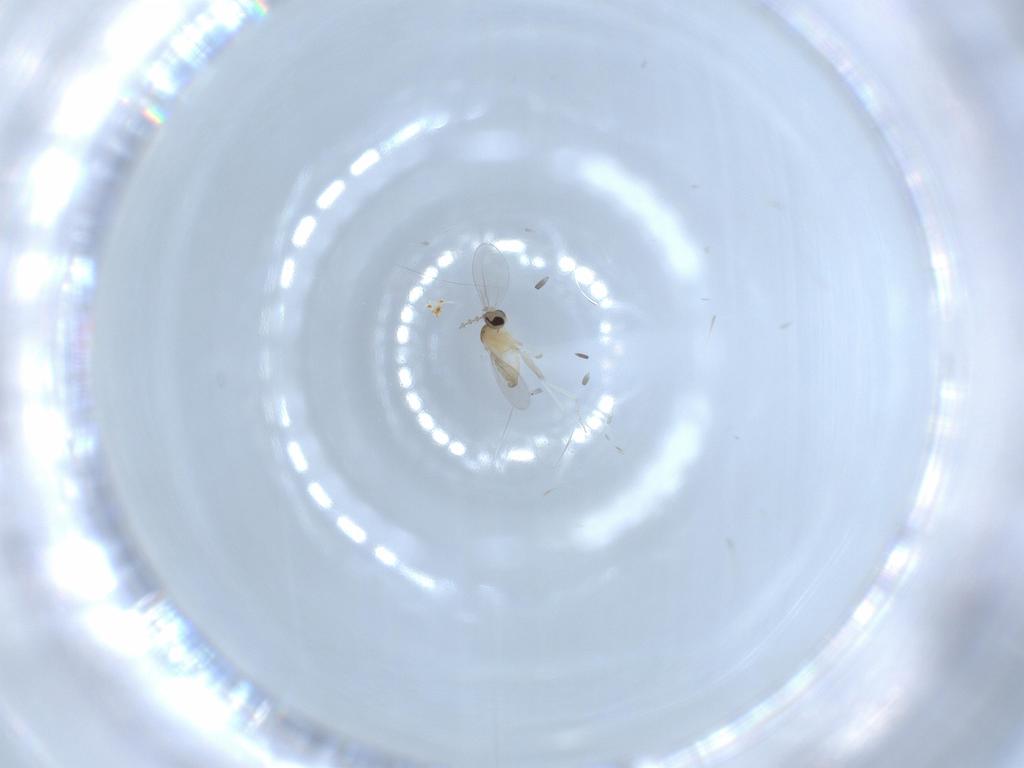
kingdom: Animalia
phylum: Arthropoda
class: Insecta
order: Diptera
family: Cecidomyiidae
